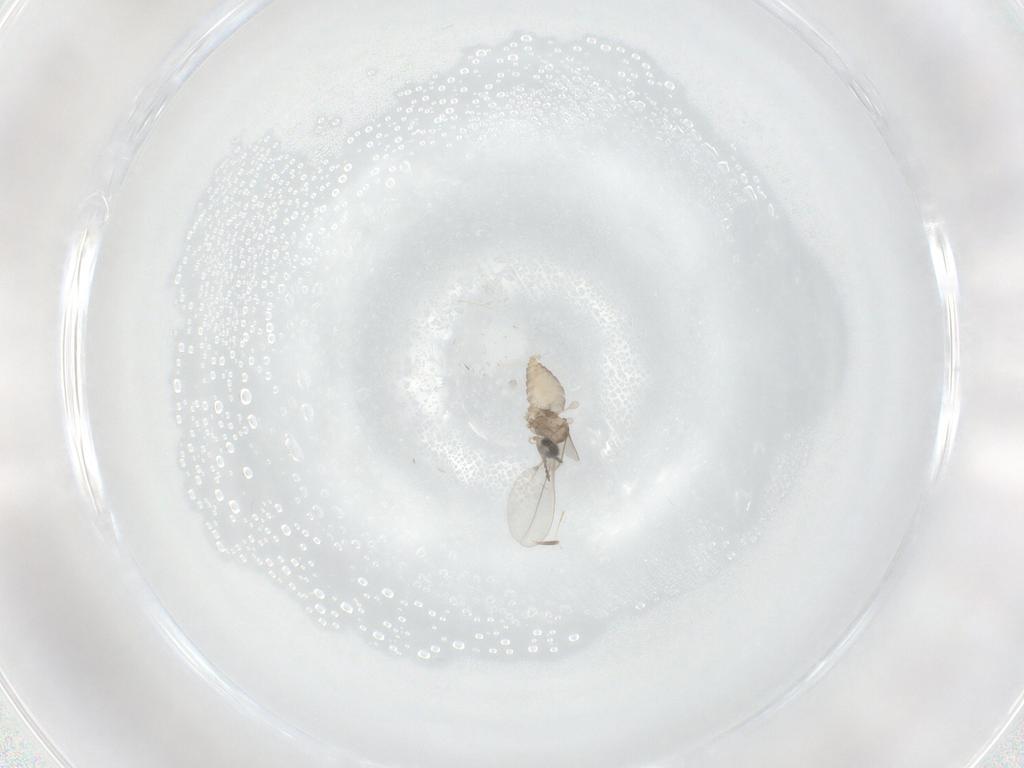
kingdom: Animalia
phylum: Arthropoda
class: Insecta
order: Diptera
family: Cecidomyiidae
